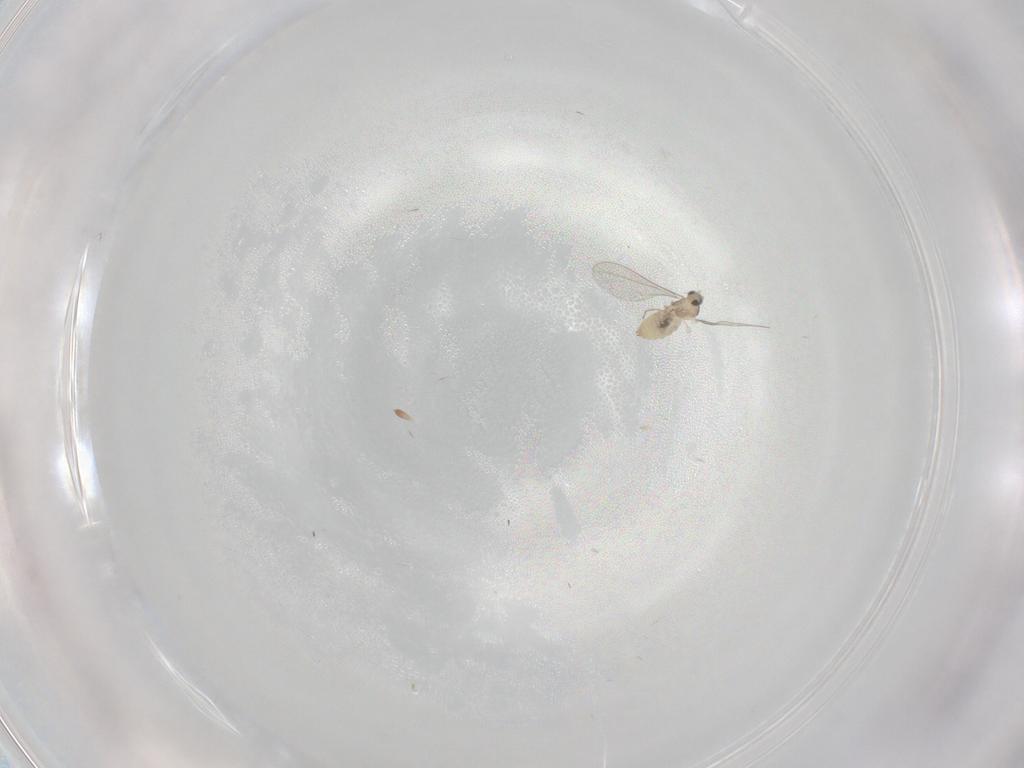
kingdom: Animalia
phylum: Arthropoda
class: Insecta
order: Diptera
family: Cecidomyiidae
